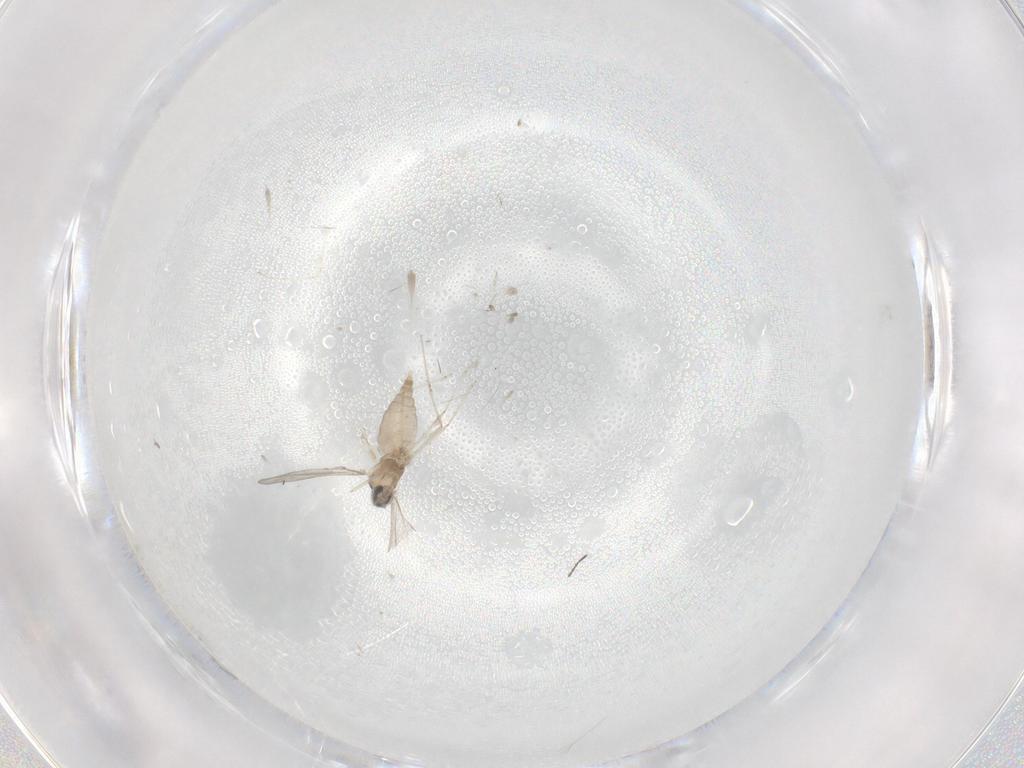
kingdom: Animalia
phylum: Arthropoda
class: Insecta
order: Diptera
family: Cecidomyiidae
